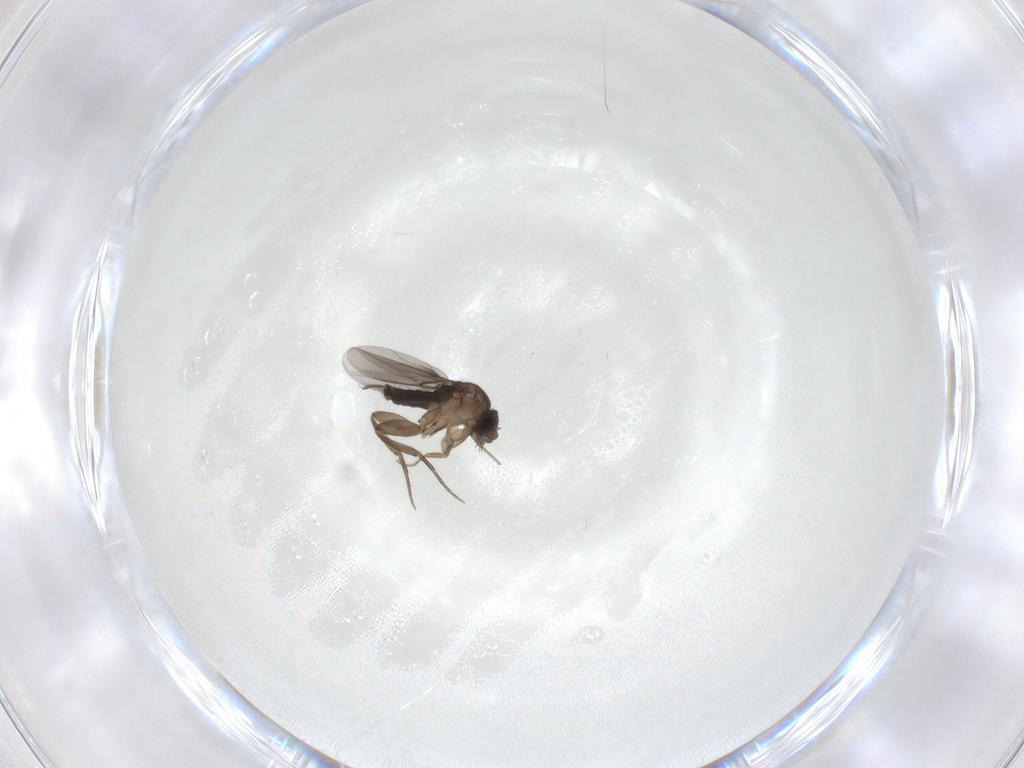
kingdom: Animalia
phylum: Arthropoda
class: Insecta
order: Diptera
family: Phoridae
